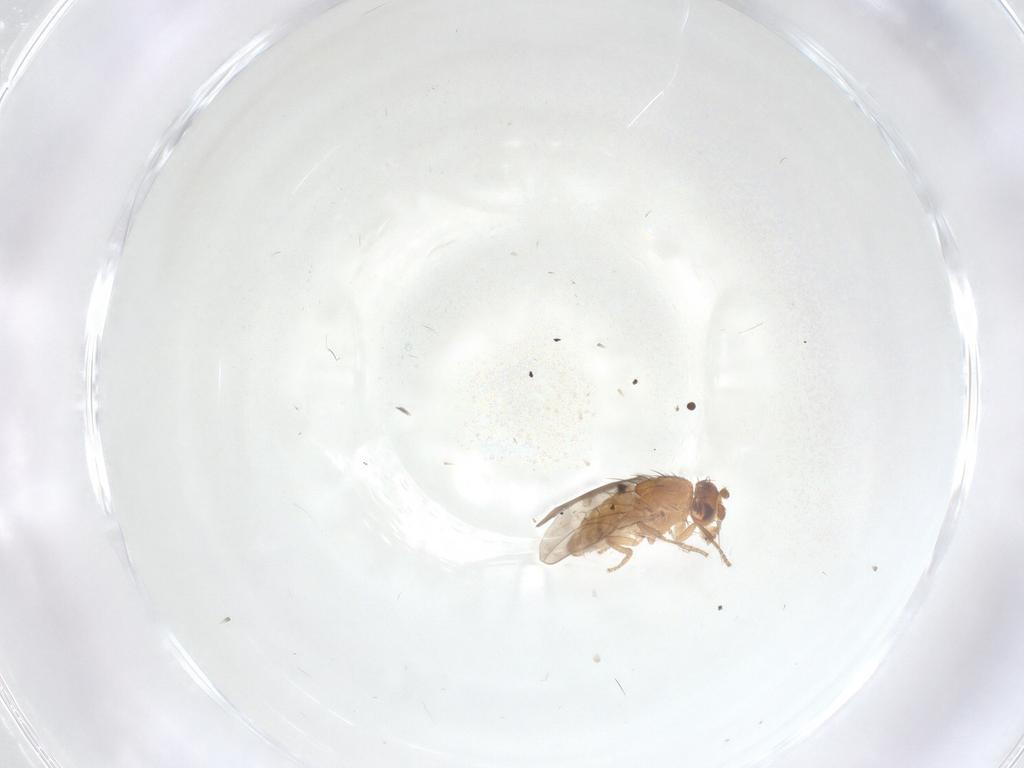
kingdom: Animalia
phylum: Arthropoda
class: Insecta
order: Diptera
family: Sphaeroceridae
